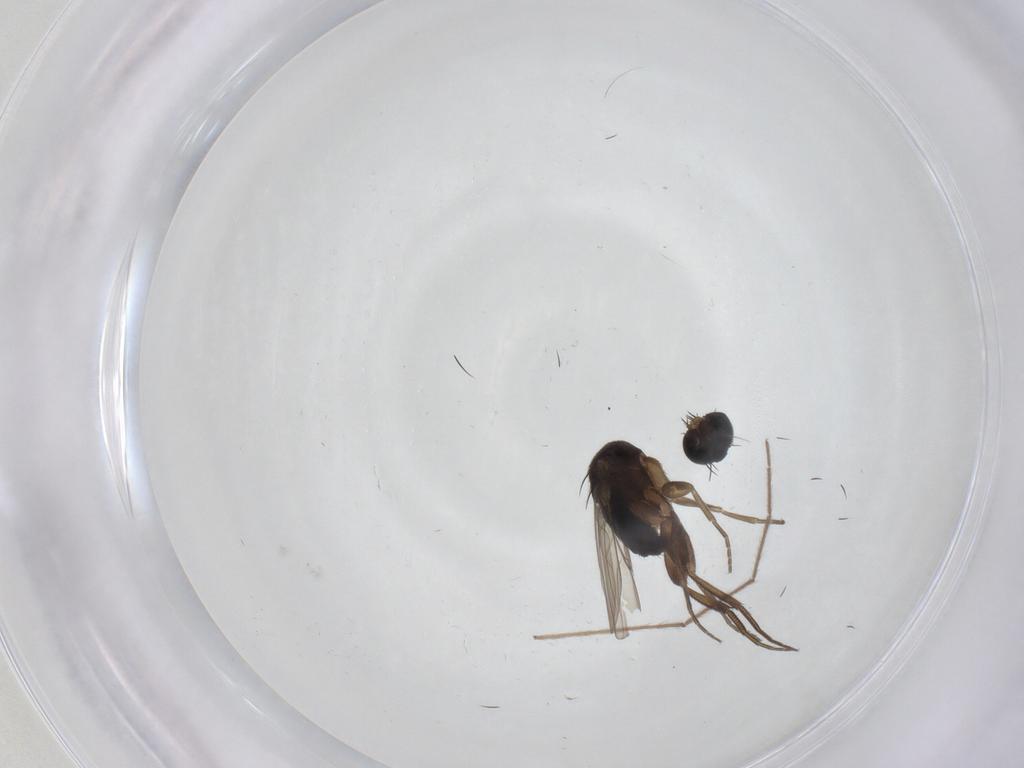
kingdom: Animalia
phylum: Arthropoda
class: Insecta
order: Diptera
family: Phoridae
